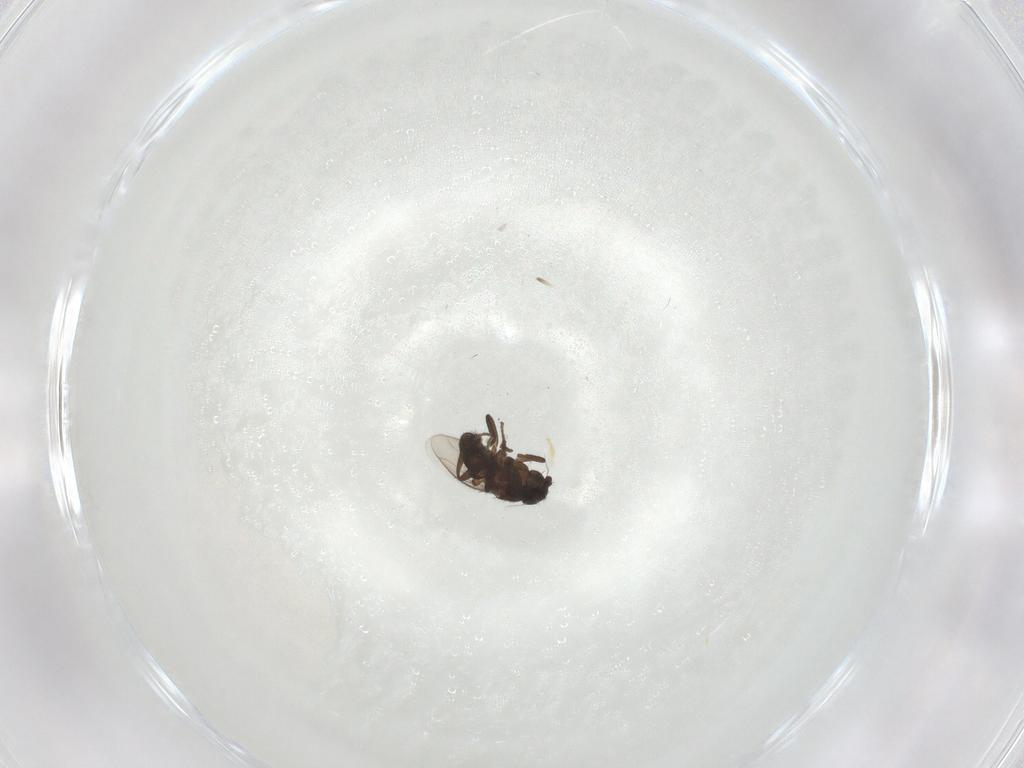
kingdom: Animalia
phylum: Arthropoda
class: Insecta
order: Diptera
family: Sphaeroceridae
